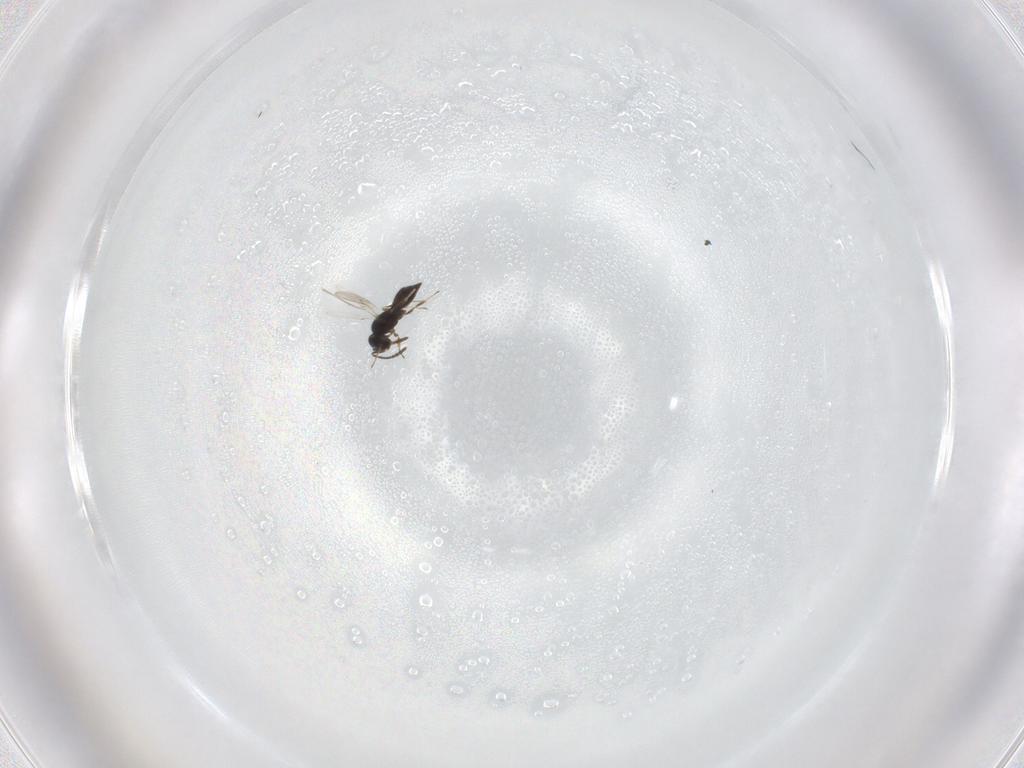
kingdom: Animalia
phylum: Arthropoda
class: Insecta
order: Hymenoptera
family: Scelionidae
